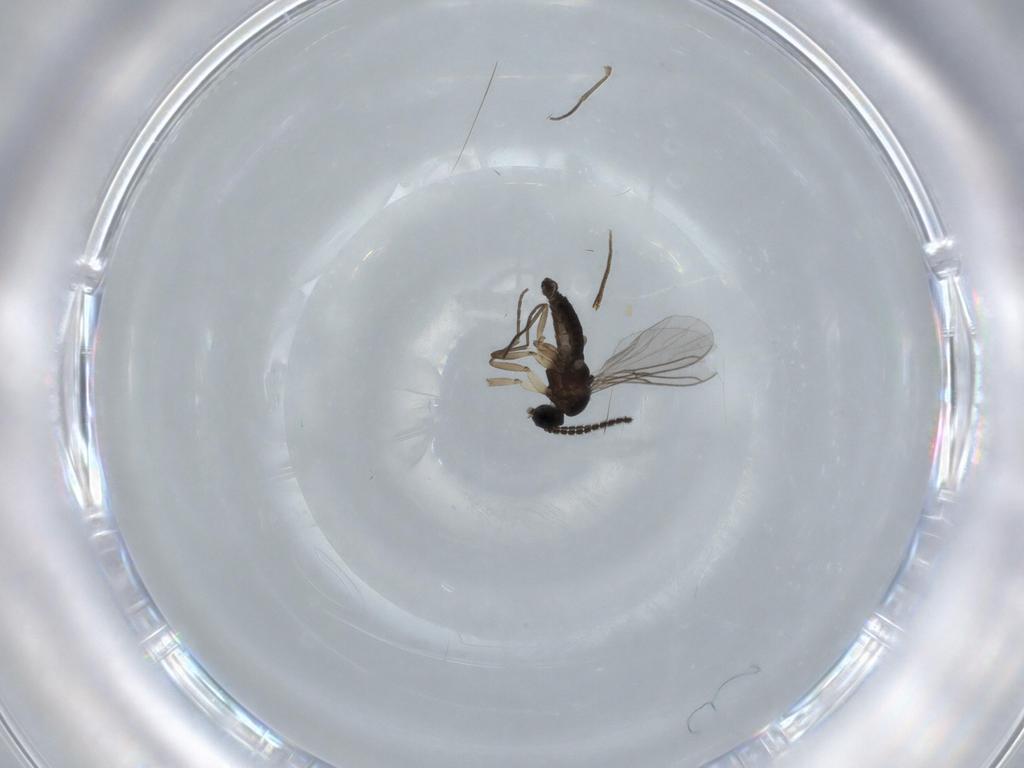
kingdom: Animalia
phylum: Arthropoda
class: Insecta
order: Diptera
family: Sciaridae
